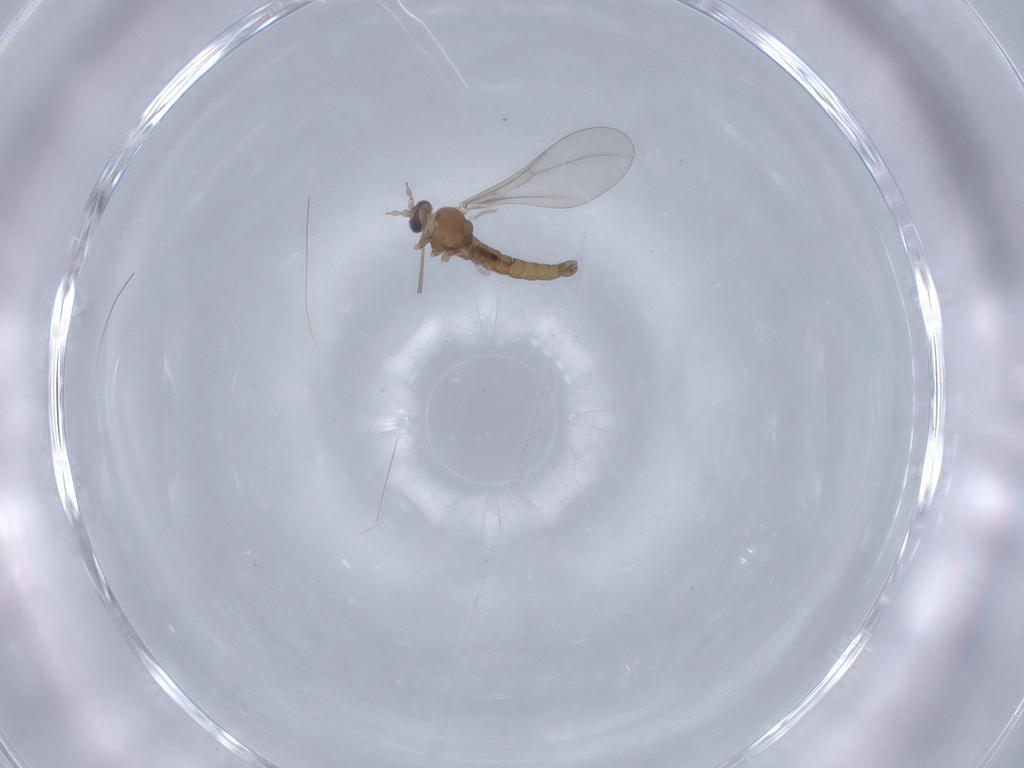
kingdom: Animalia
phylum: Arthropoda
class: Insecta
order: Diptera
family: Cecidomyiidae
